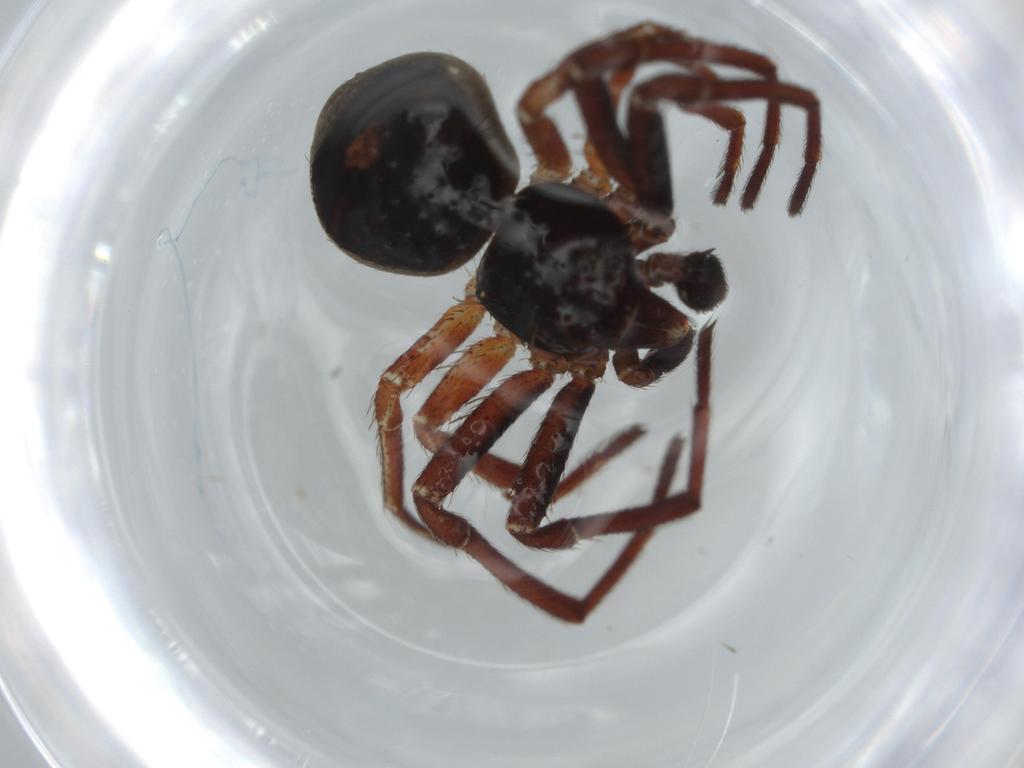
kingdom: Animalia
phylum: Arthropoda
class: Arachnida
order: Araneae
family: Thomisidae
